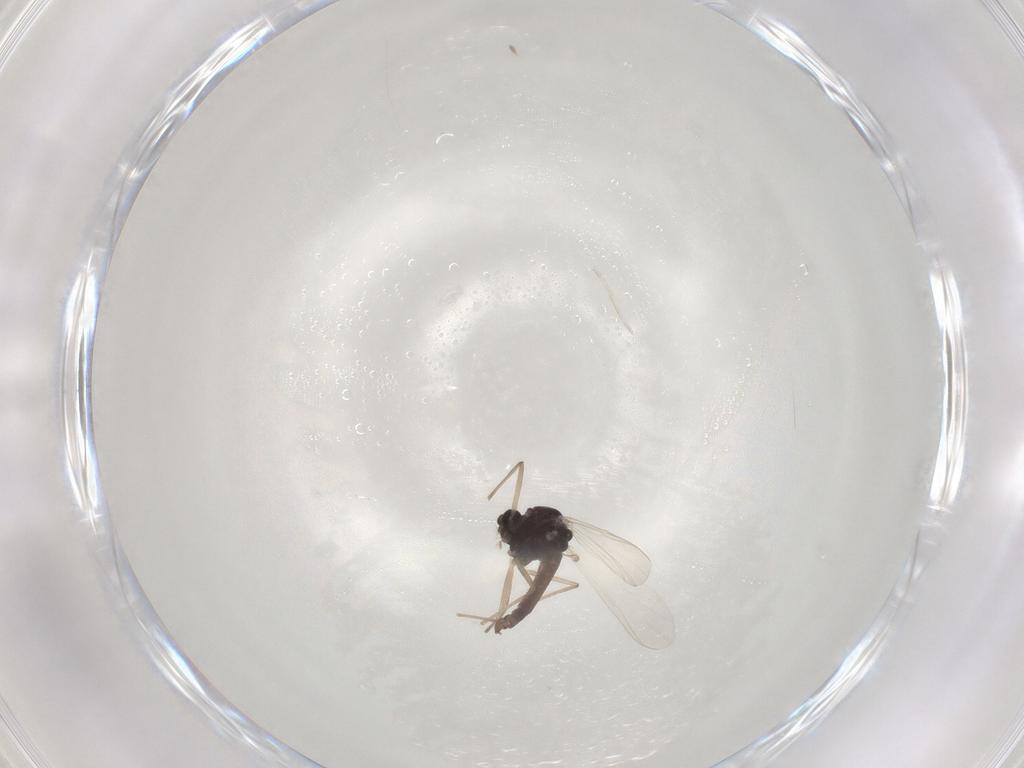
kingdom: Animalia
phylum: Arthropoda
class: Insecta
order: Diptera
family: Chironomidae
